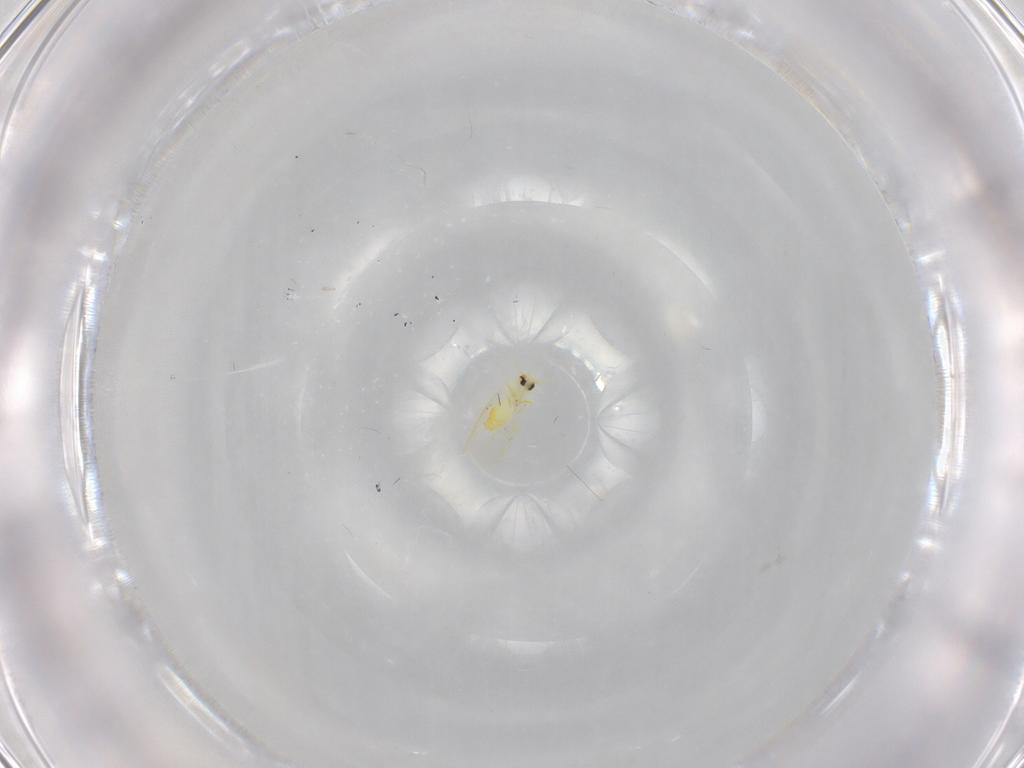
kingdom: Animalia
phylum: Arthropoda
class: Insecta
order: Hemiptera
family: Aleyrodidae
